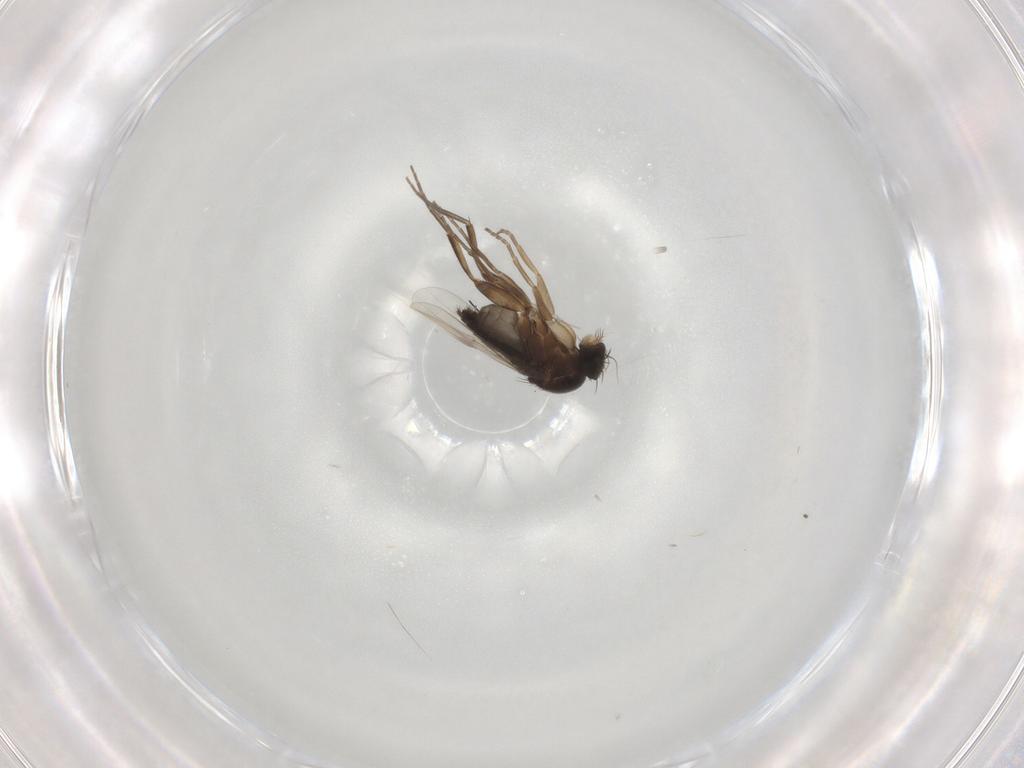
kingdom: Animalia
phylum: Arthropoda
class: Insecta
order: Diptera
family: Phoridae
